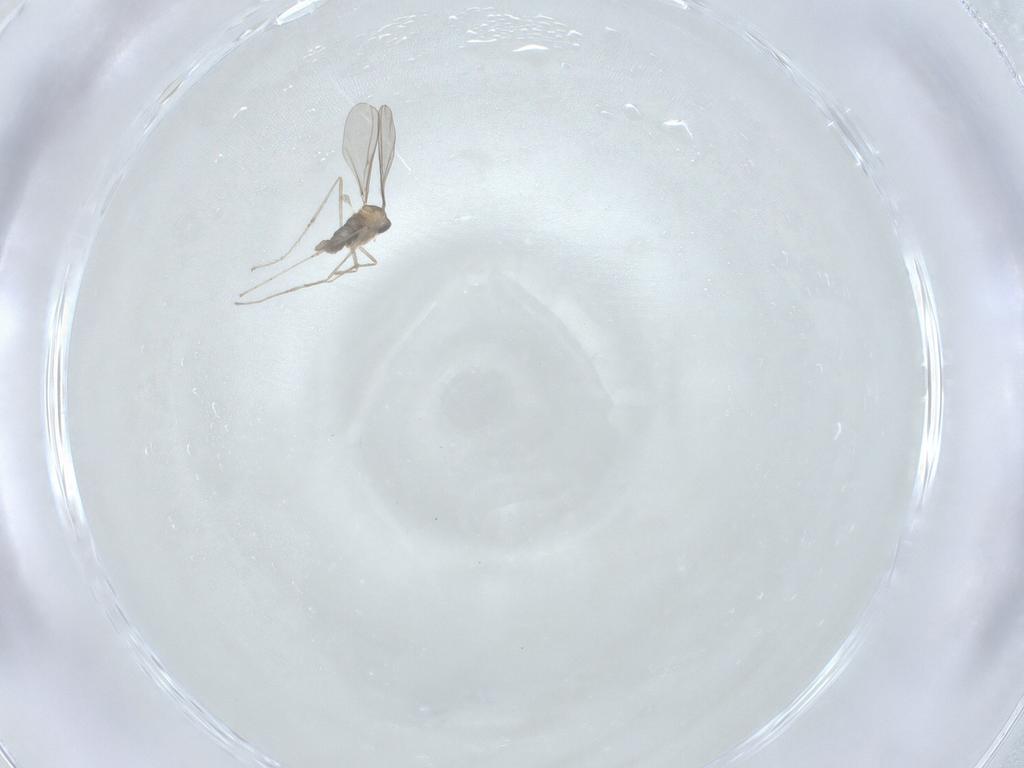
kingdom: Animalia
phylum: Arthropoda
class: Insecta
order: Diptera
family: Cecidomyiidae
